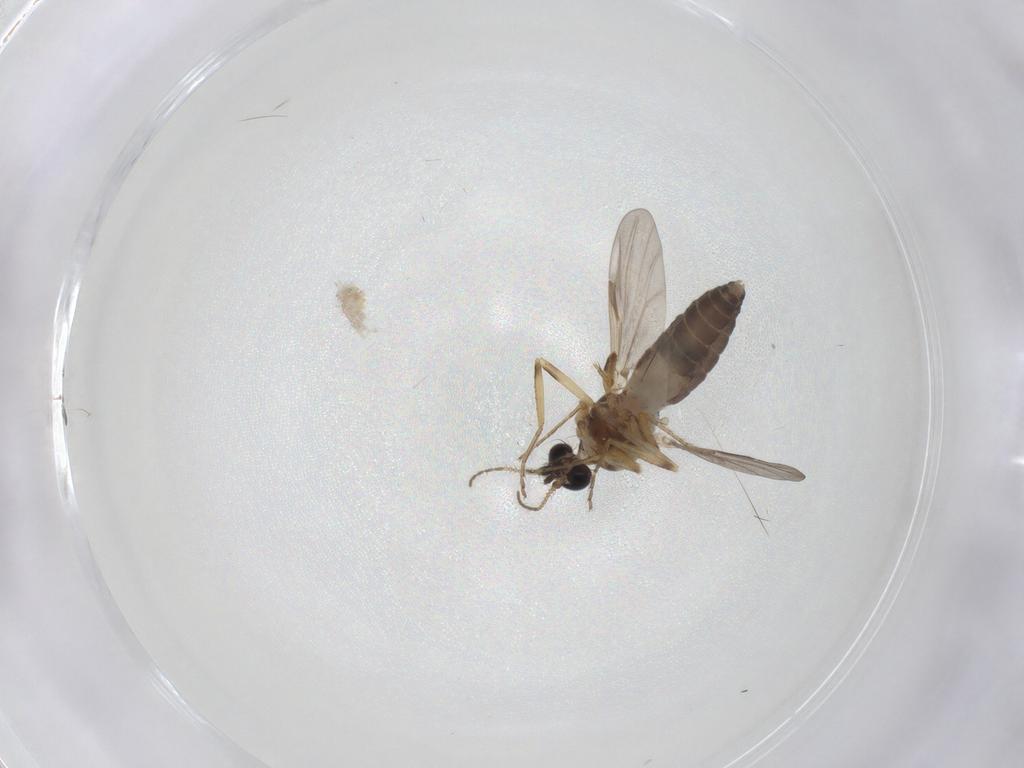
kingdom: Animalia
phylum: Arthropoda
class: Insecta
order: Diptera
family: Ceratopogonidae
